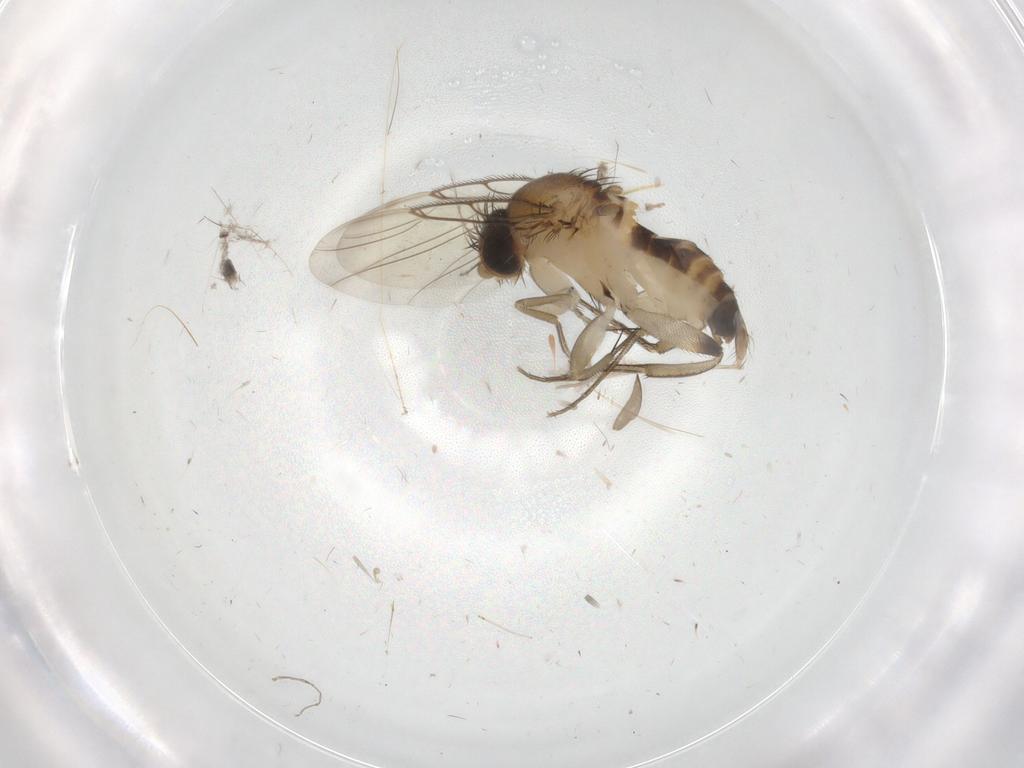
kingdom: Animalia
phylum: Arthropoda
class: Insecta
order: Diptera
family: Phoridae
